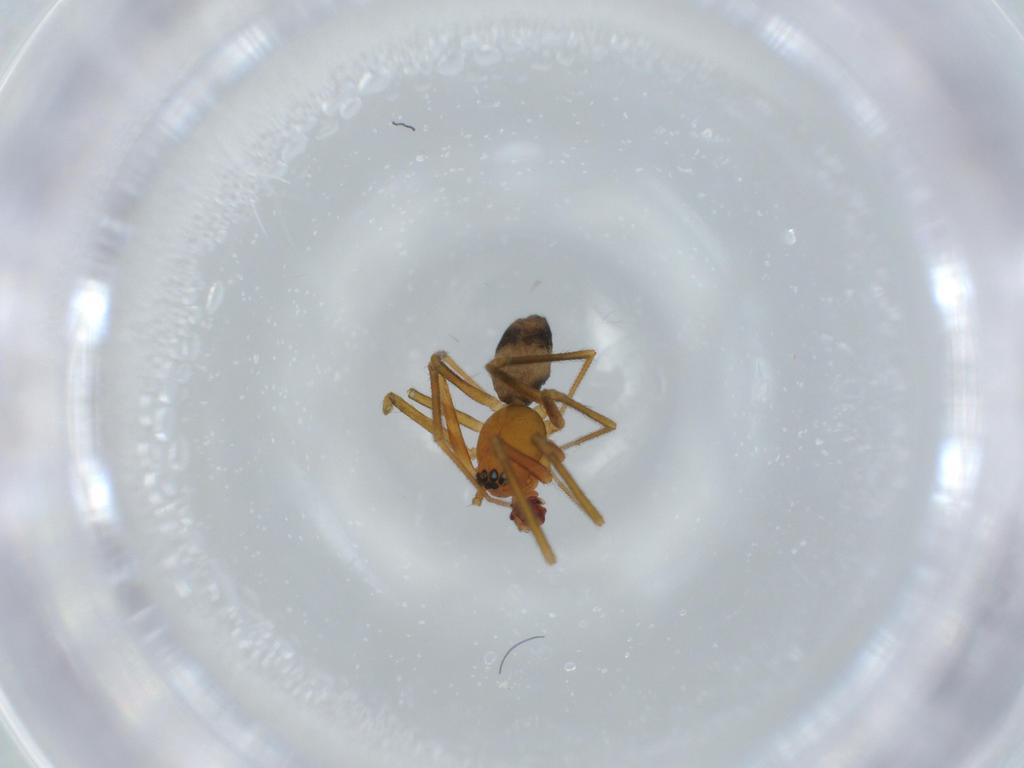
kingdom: Animalia
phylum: Arthropoda
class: Arachnida
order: Araneae
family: Linyphiidae
